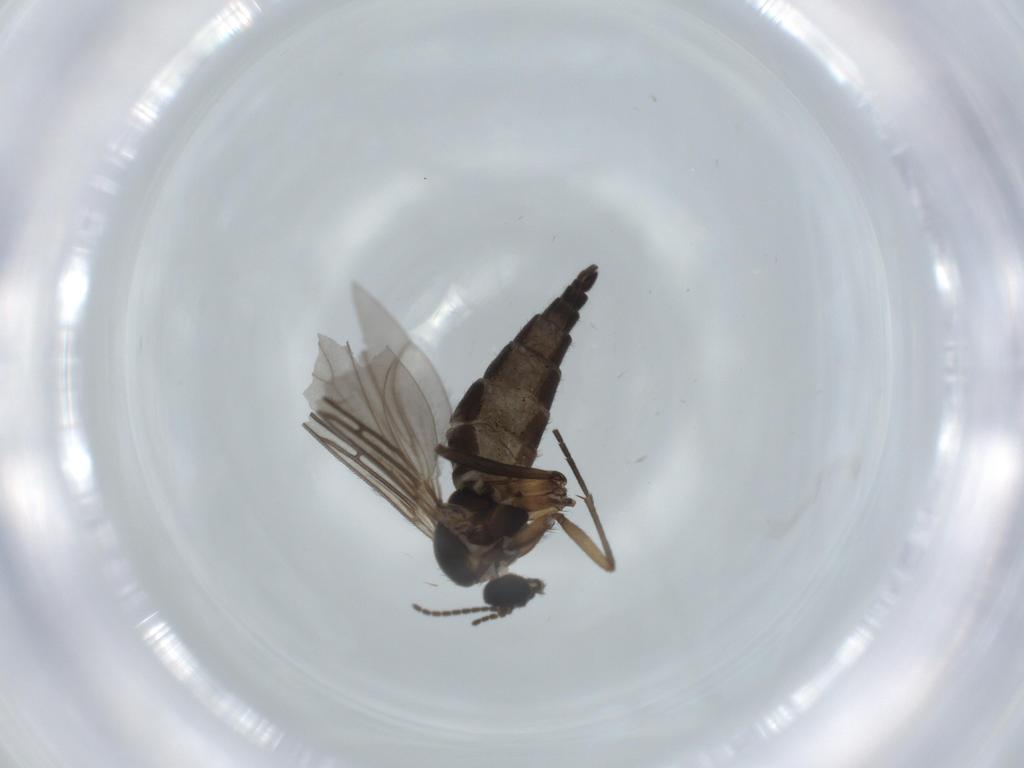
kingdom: Animalia
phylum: Arthropoda
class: Insecta
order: Diptera
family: Sciaridae
